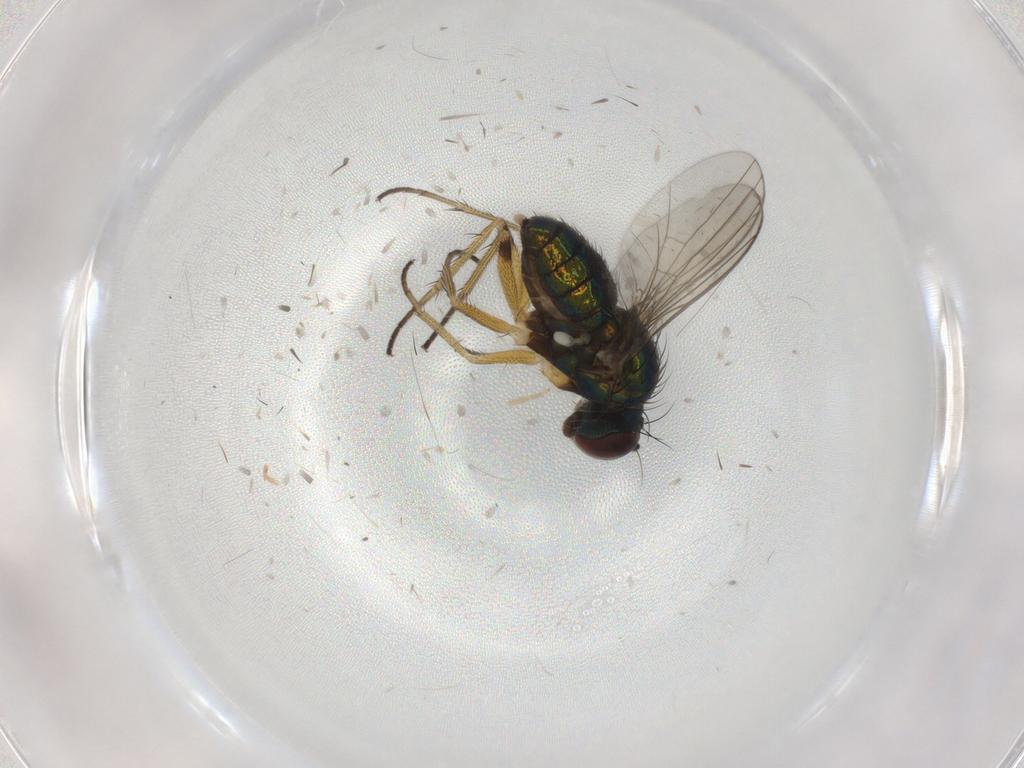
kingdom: Animalia
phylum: Arthropoda
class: Insecta
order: Diptera
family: Chironomidae
